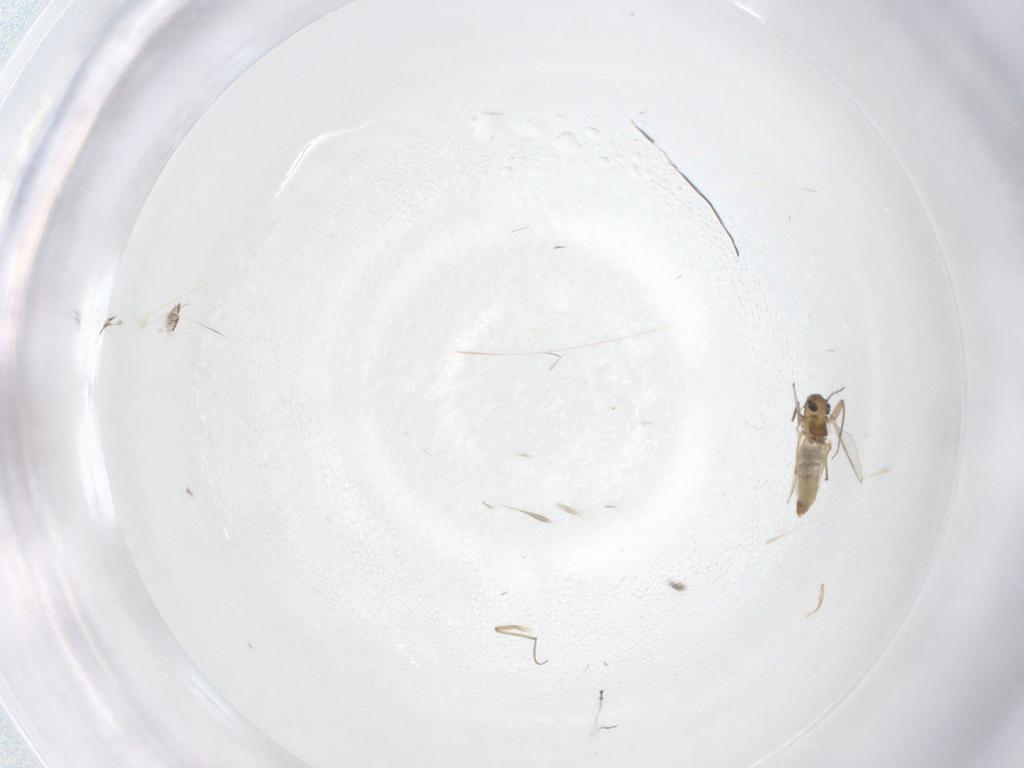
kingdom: Animalia
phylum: Arthropoda
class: Insecta
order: Diptera
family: Chironomidae
